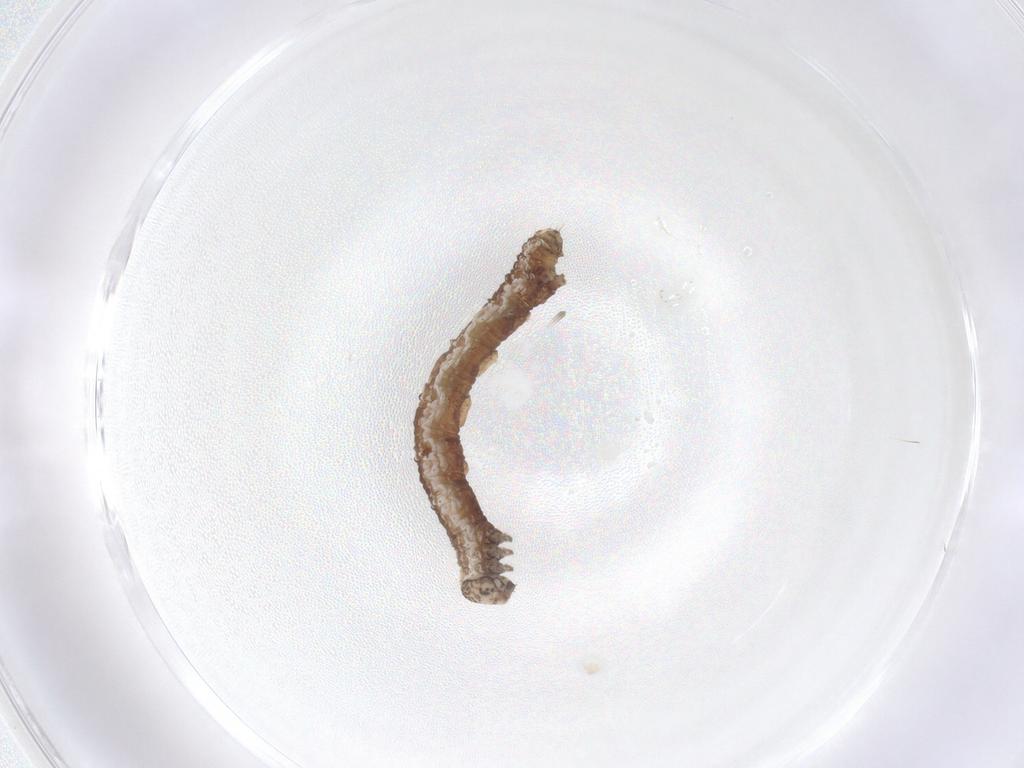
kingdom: Animalia
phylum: Arthropoda
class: Insecta
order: Lepidoptera
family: Geometridae
